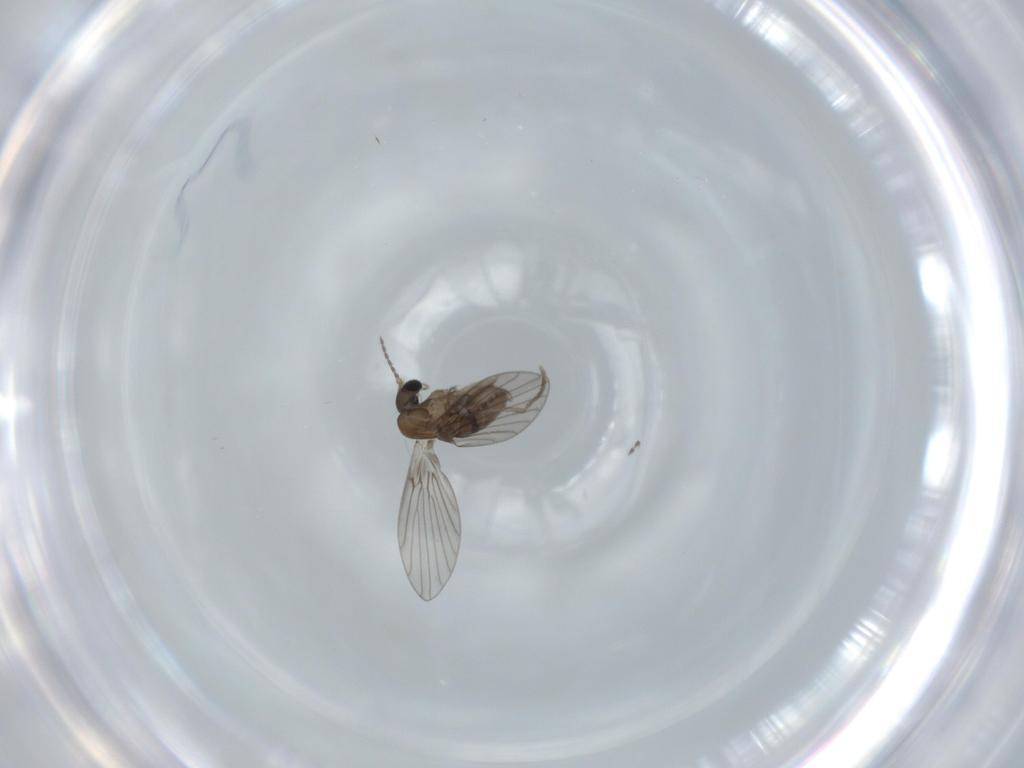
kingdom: Animalia
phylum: Arthropoda
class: Insecta
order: Diptera
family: Psychodidae
